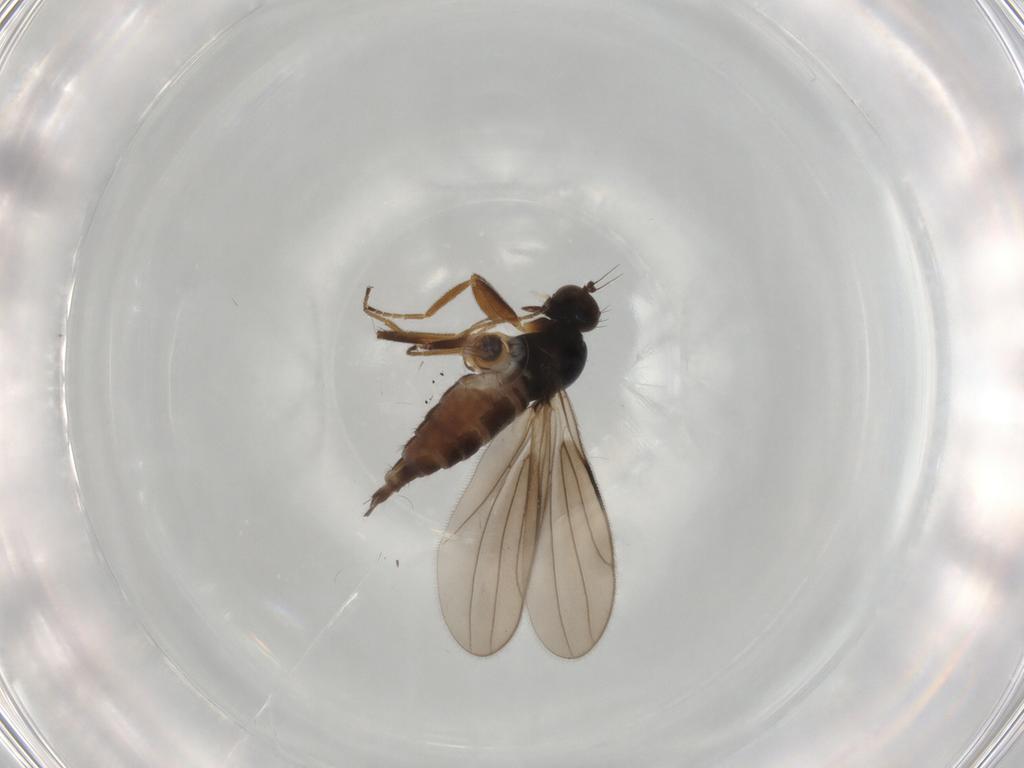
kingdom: Animalia
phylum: Arthropoda
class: Insecta
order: Diptera
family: Hybotidae
